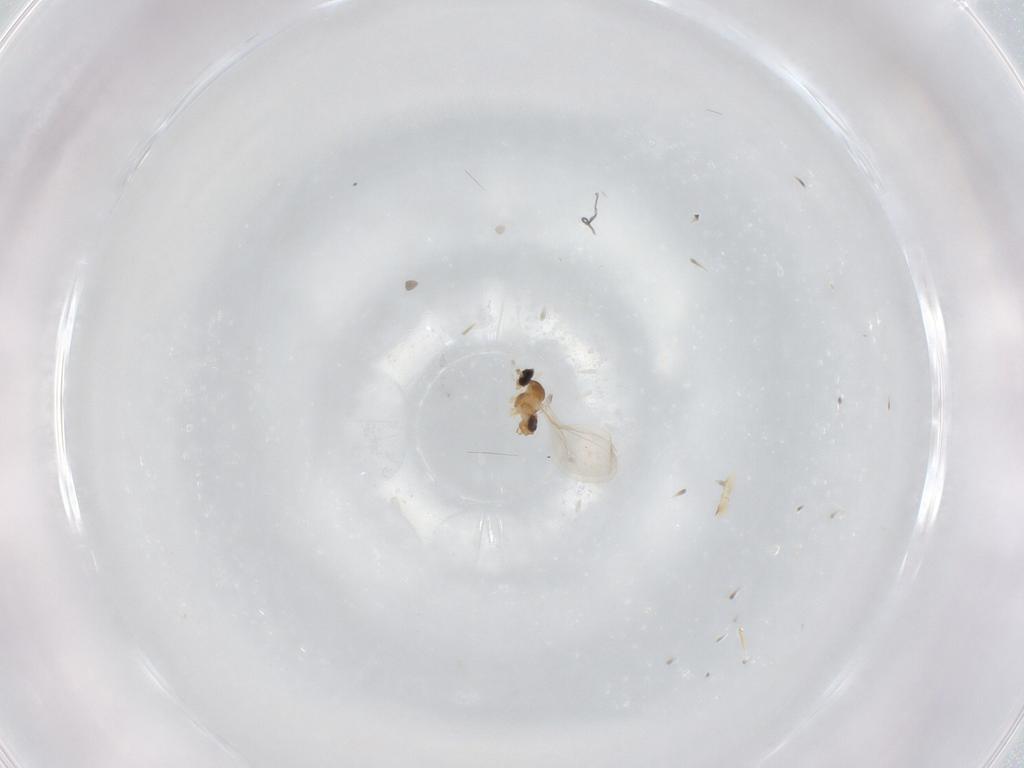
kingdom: Animalia
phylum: Arthropoda
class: Insecta
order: Diptera
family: Cecidomyiidae
